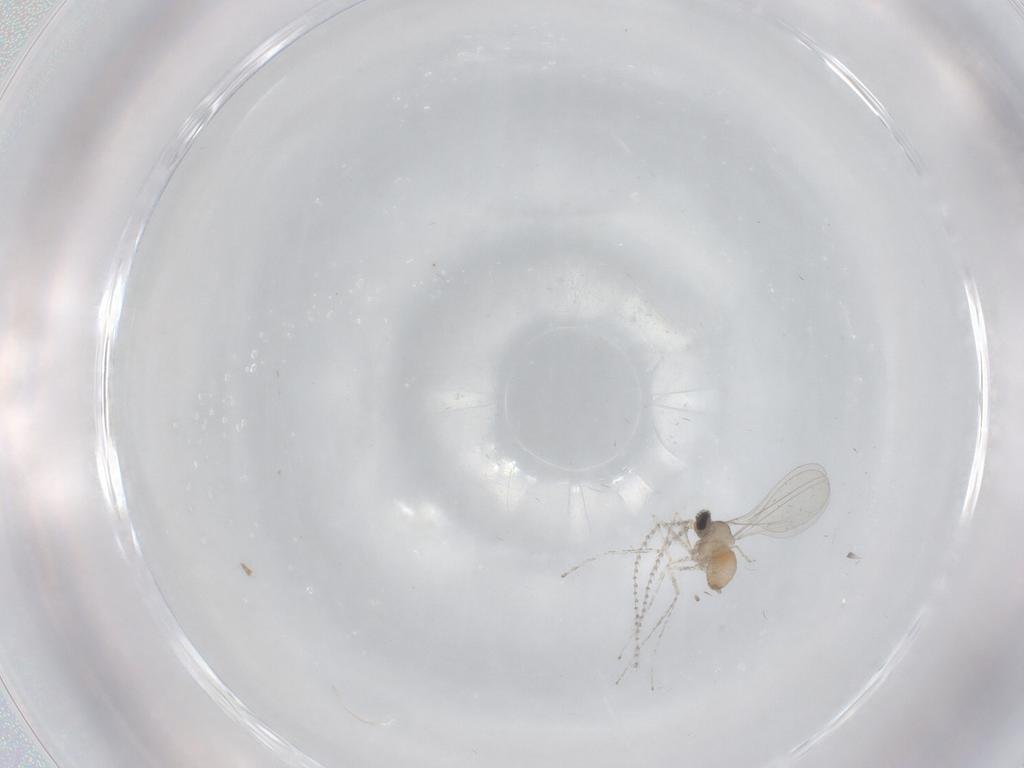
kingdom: Animalia
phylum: Arthropoda
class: Insecta
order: Diptera
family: Cecidomyiidae
